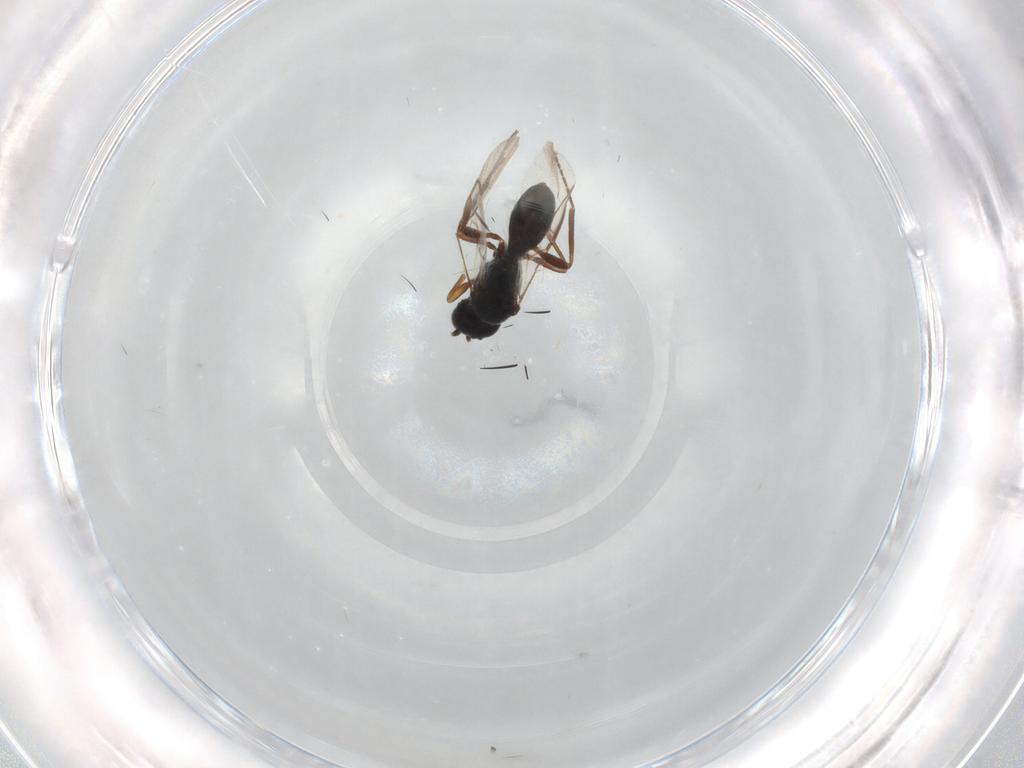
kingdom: Animalia
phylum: Arthropoda
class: Insecta
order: Hymenoptera
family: Braconidae
